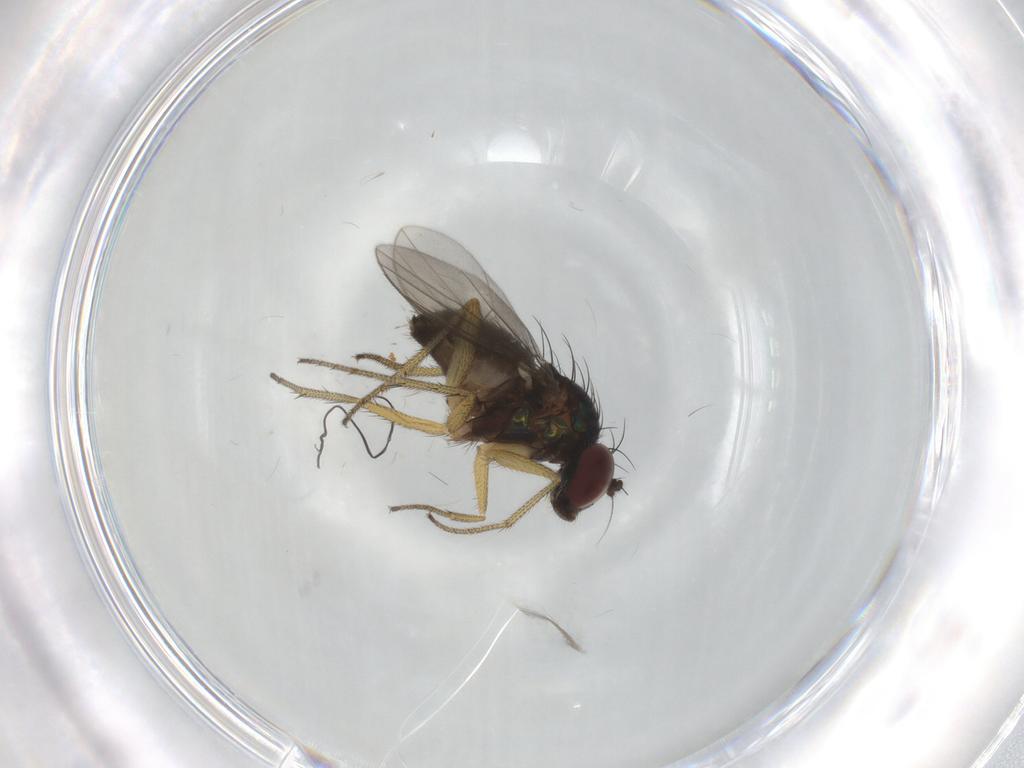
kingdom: Animalia
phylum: Arthropoda
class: Insecta
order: Diptera
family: Dolichopodidae
